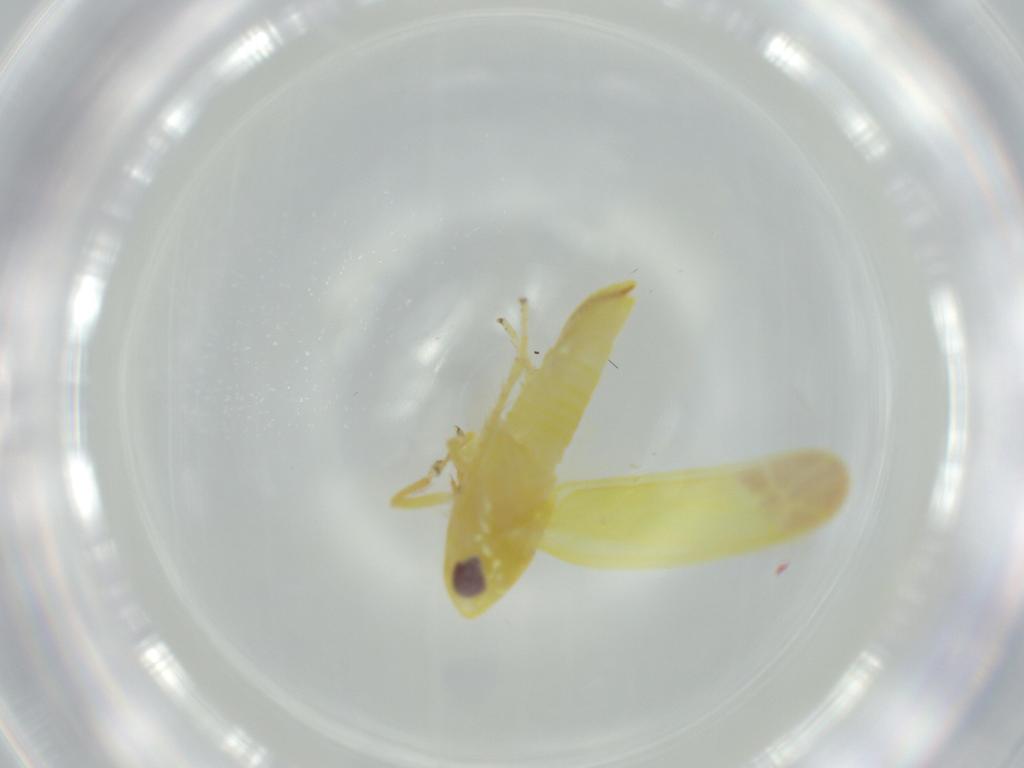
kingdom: Animalia
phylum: Arthropoda
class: Insecta
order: Hemiptera
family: Cicadellidae
